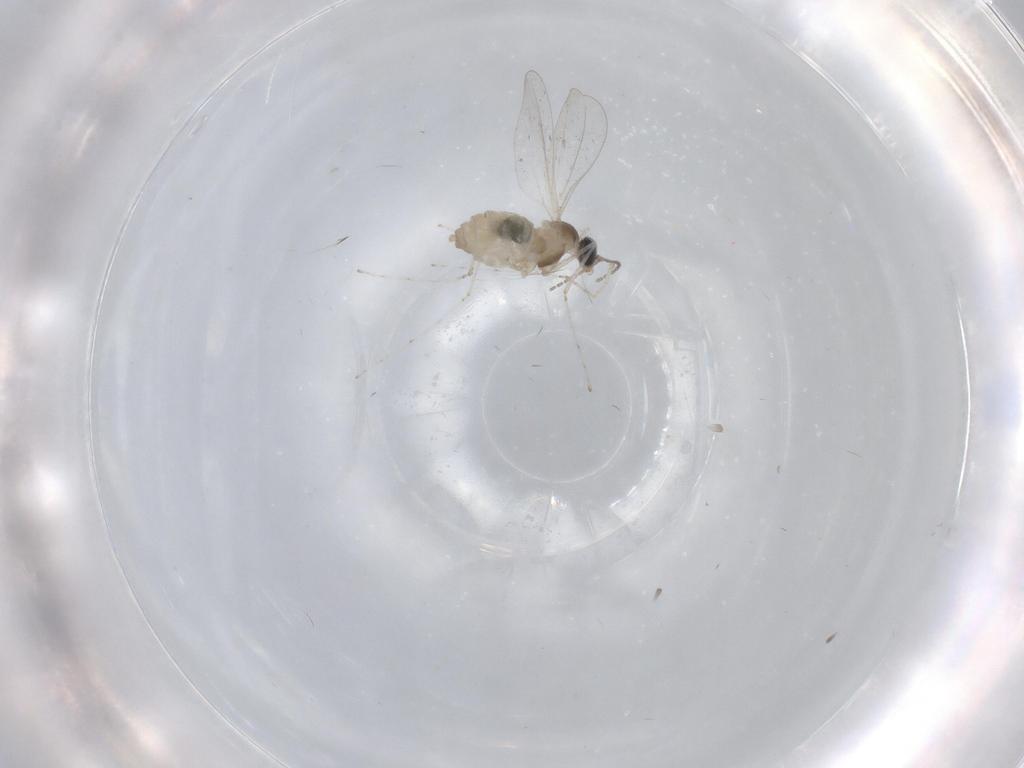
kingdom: Animalia
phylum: Arthropoda
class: Insecta
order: Diptera
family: Cecidomyiidae
